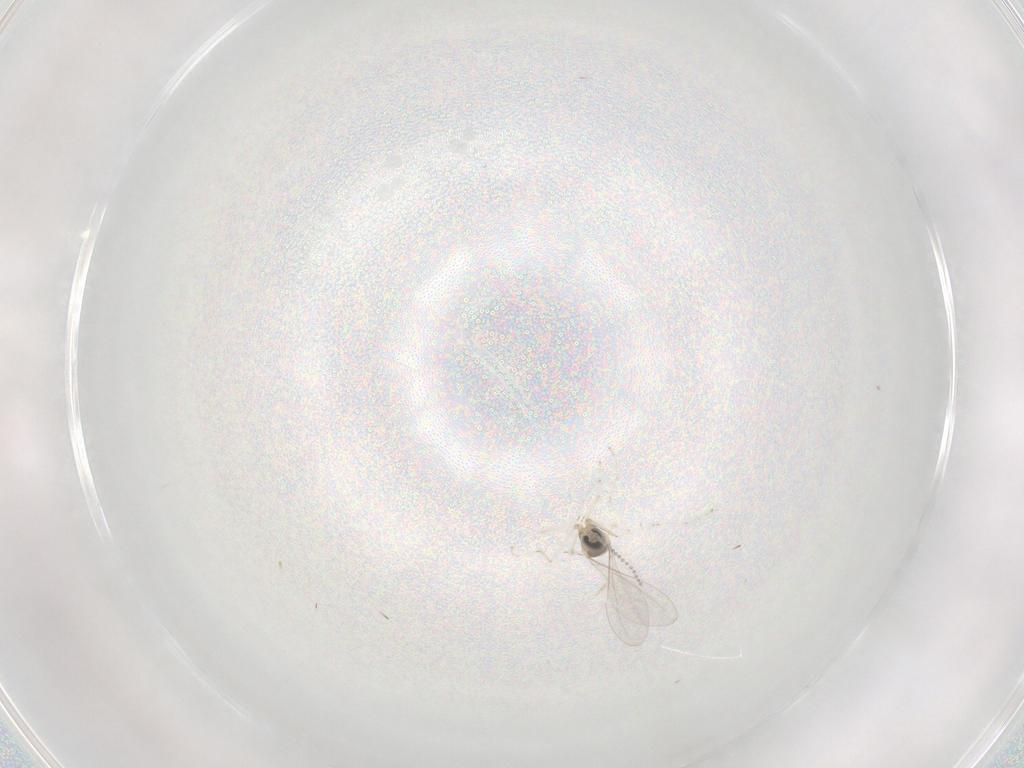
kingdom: Animalia
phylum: Arthropoda
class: Insecta
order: Diptera
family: Cecidomyiidae
